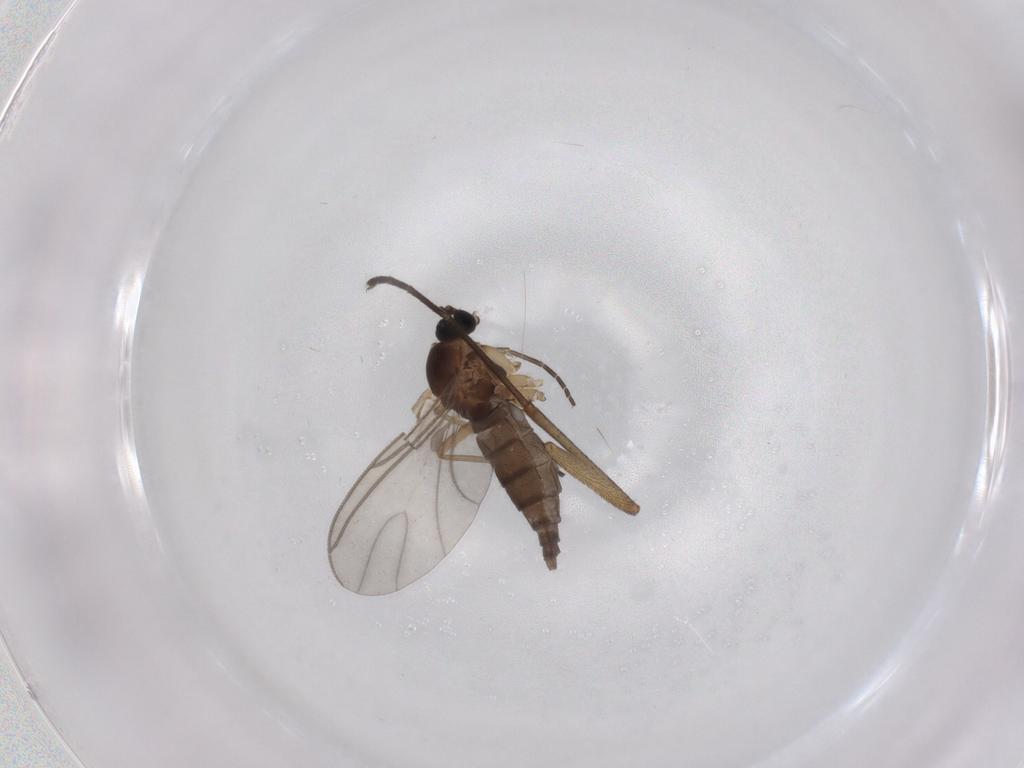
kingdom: Animalia
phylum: Arthropoda
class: Insecta
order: Diptera
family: Sciaridae
